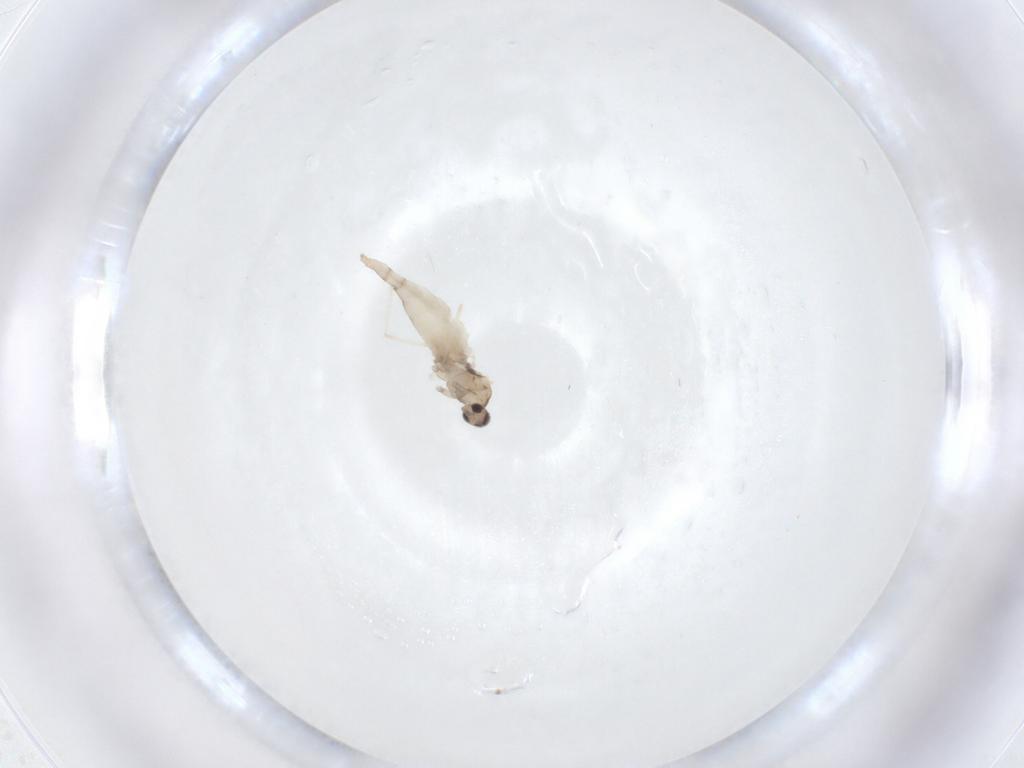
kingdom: Animalia
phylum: Arthropoda
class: Insecta
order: Diptera
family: Cecidomyiidae
